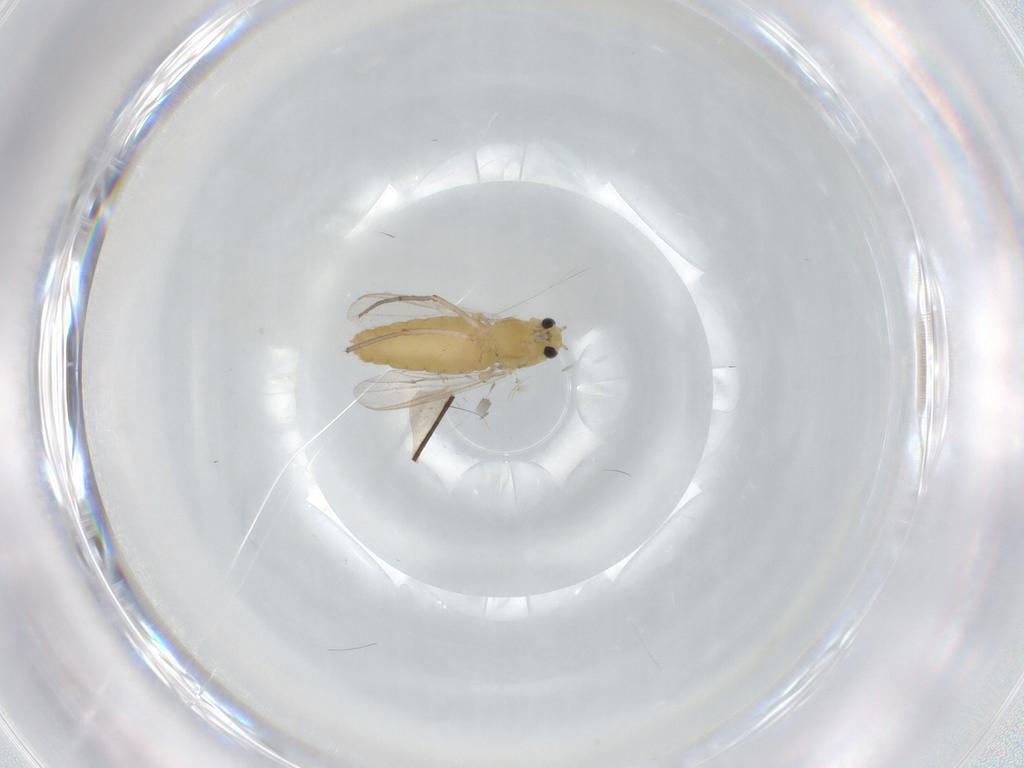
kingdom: Animalia
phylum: Arthropoda
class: Insecta
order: Diptera
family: Chironomidae
